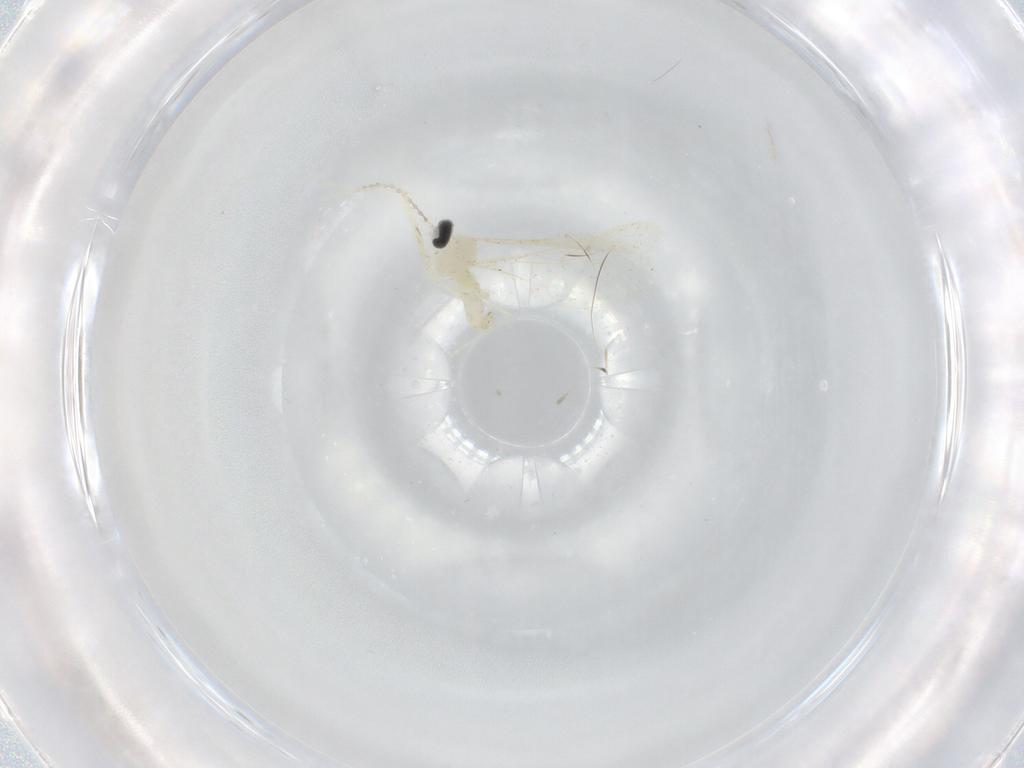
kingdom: Animalia
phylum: Arthropoda
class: Insecta
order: Diptera
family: Cecidomyiidae
